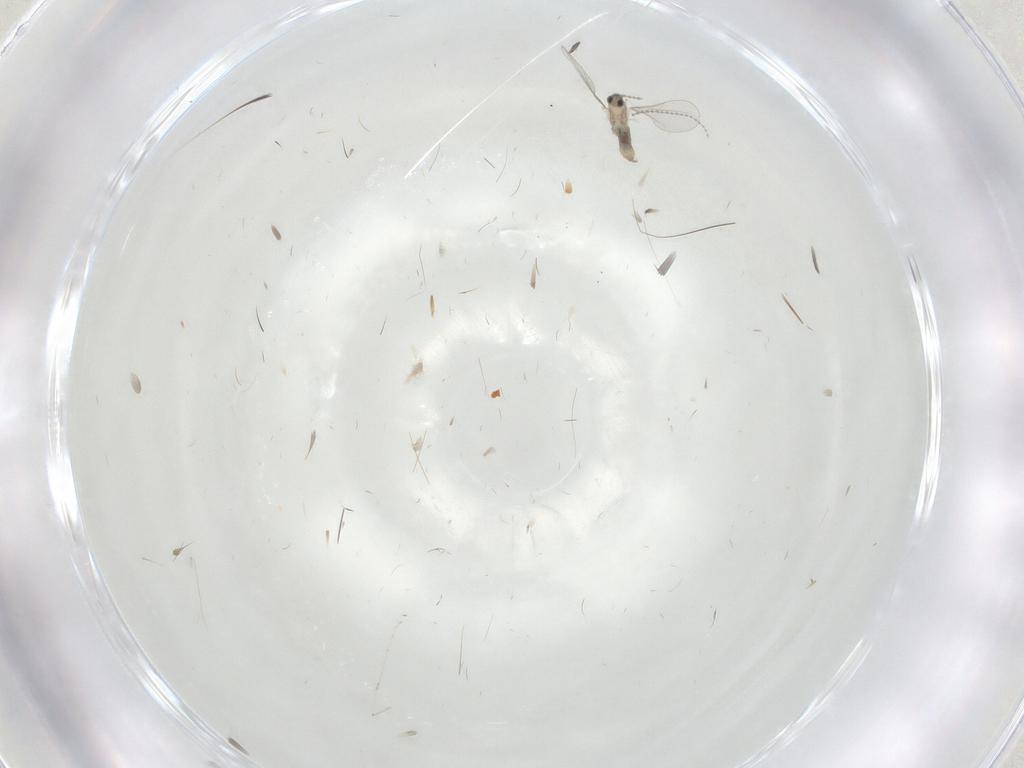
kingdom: Animalia
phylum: Arthropoda
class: Insecta
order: Diptera
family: Cecidomyiidae
